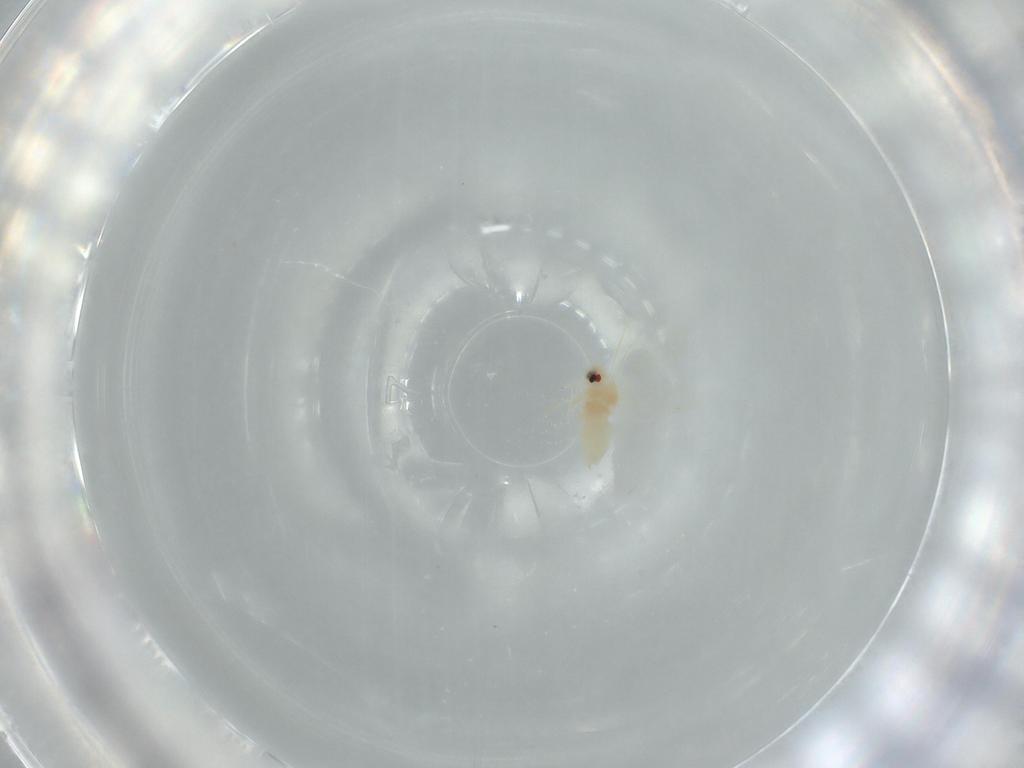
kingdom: Animalia
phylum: Arthropoda
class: Insecta
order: Hemiptera
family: Aleyrodidae
